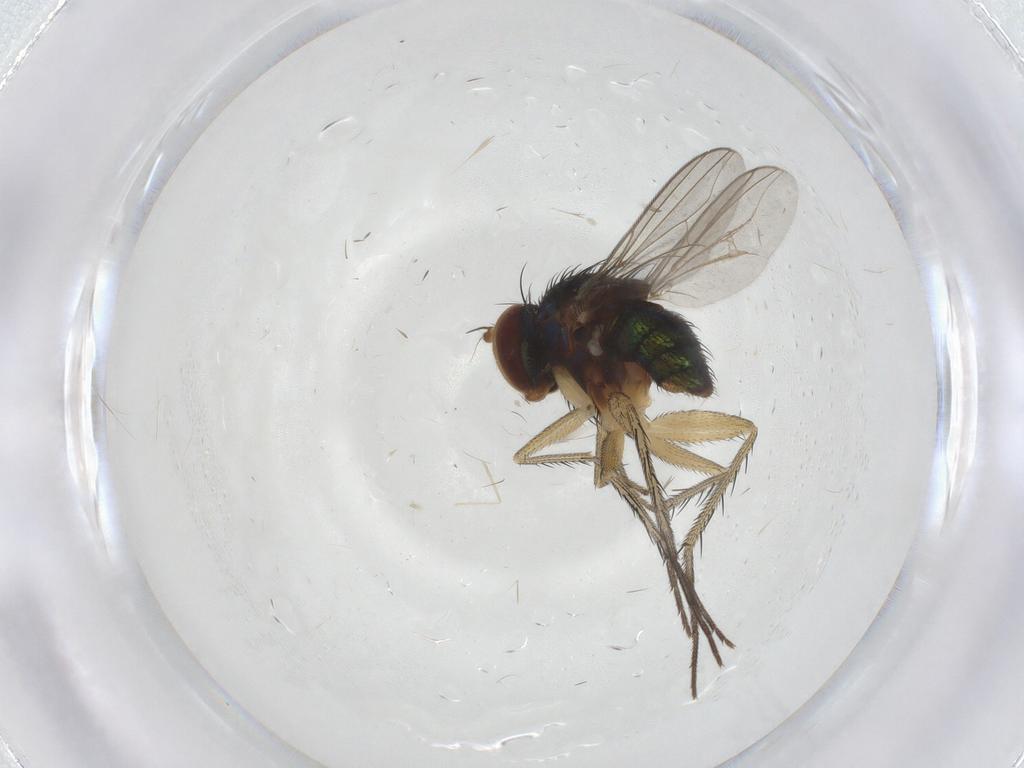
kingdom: Animalia
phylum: Arthropoda
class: Insecta
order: Diptera
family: Dolichopodidae
